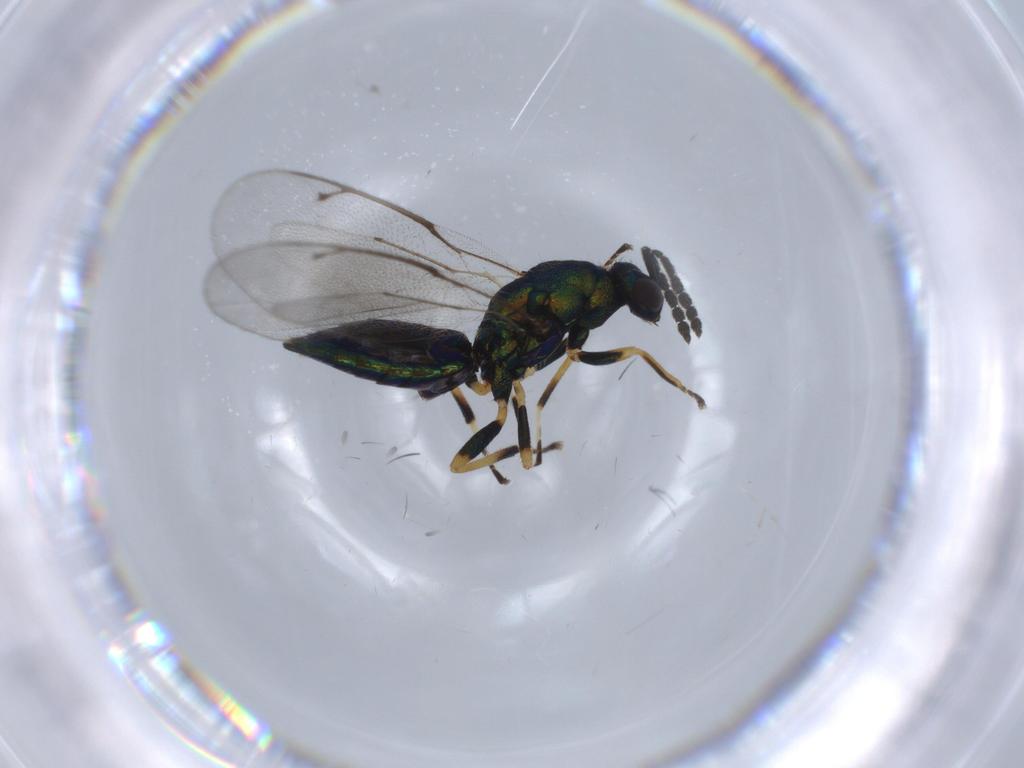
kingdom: Animalia
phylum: Arthropoda
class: Insecta
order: Hymenoptera
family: Eulophidae
